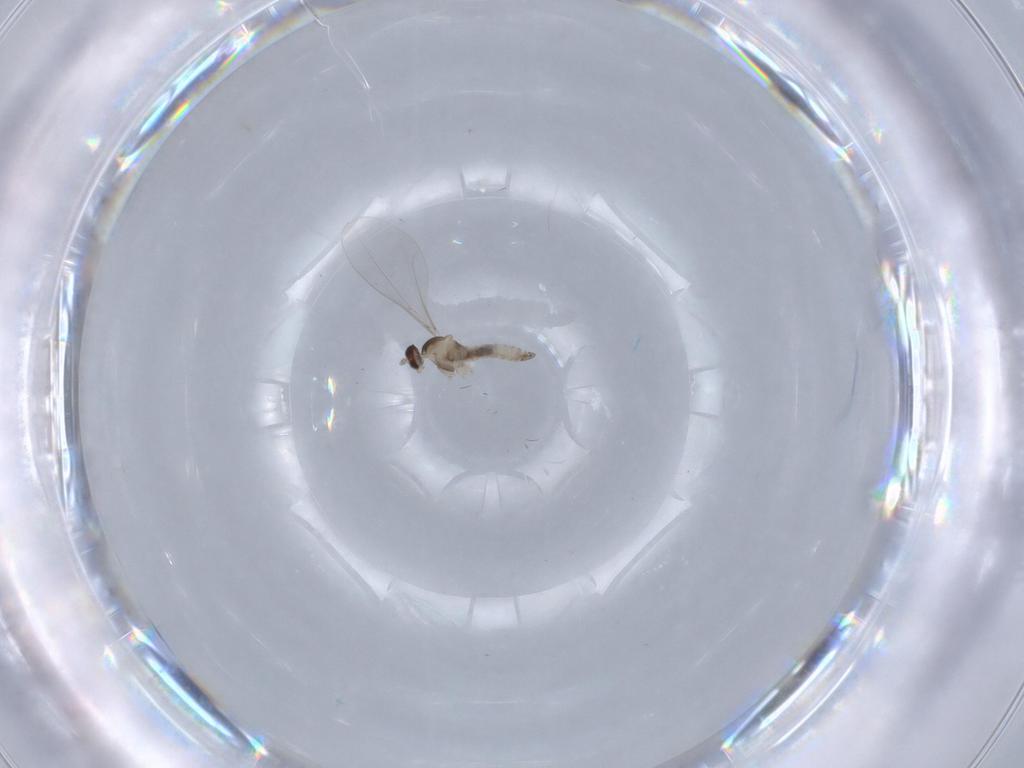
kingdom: Animalia
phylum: Arthropoda
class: Insecta
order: Diptera
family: Cecidomyiidae
